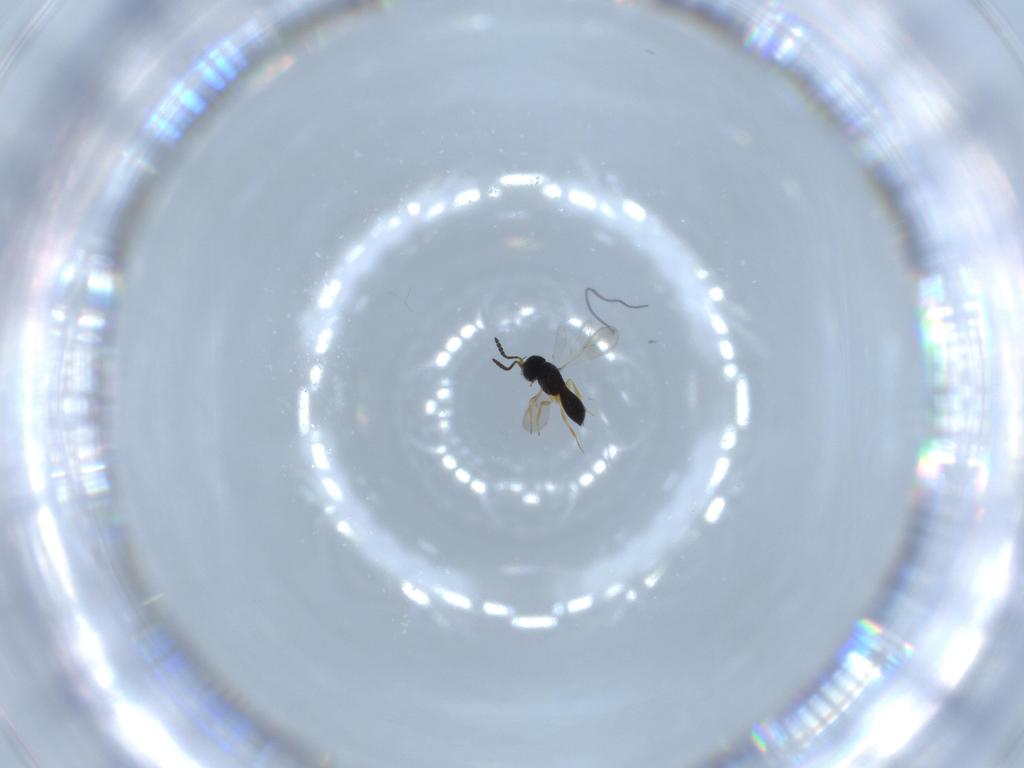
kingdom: Animalia
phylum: Arthropoda
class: Insecta
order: Hymenoptera
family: Scelionidae
